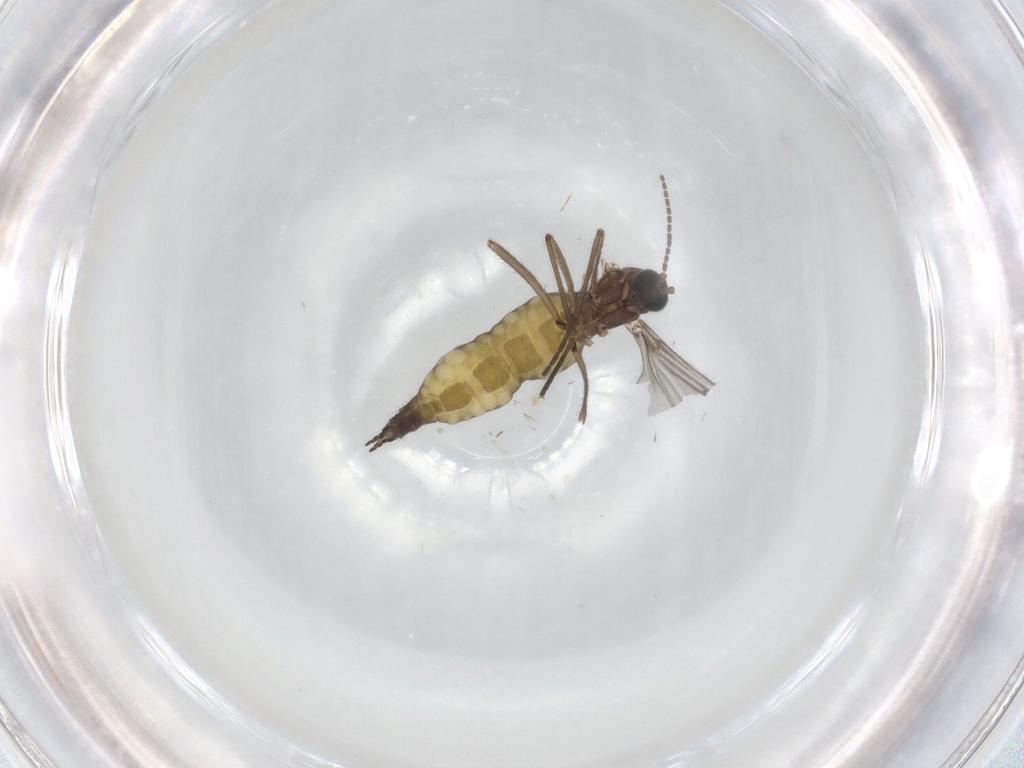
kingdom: Animalia
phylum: Arthropoda
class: Insecta
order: Diptera
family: Sciaridae
